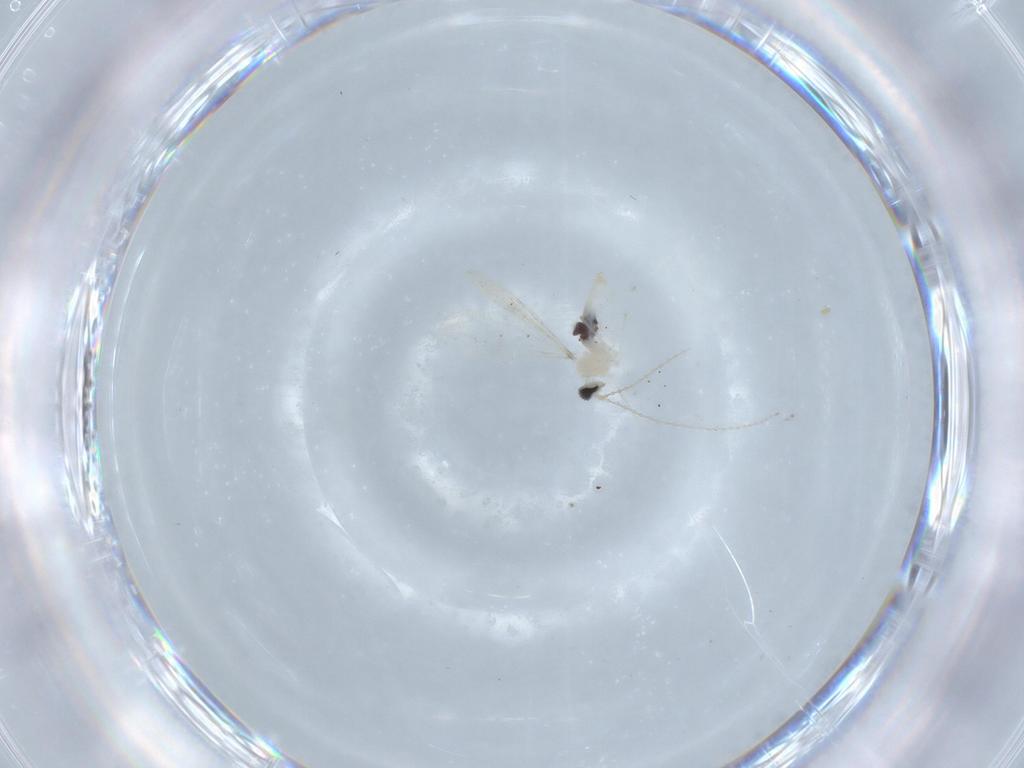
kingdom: Animalia
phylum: Arthropoda
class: Insecta
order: Diptera
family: Cecidomyiidae
